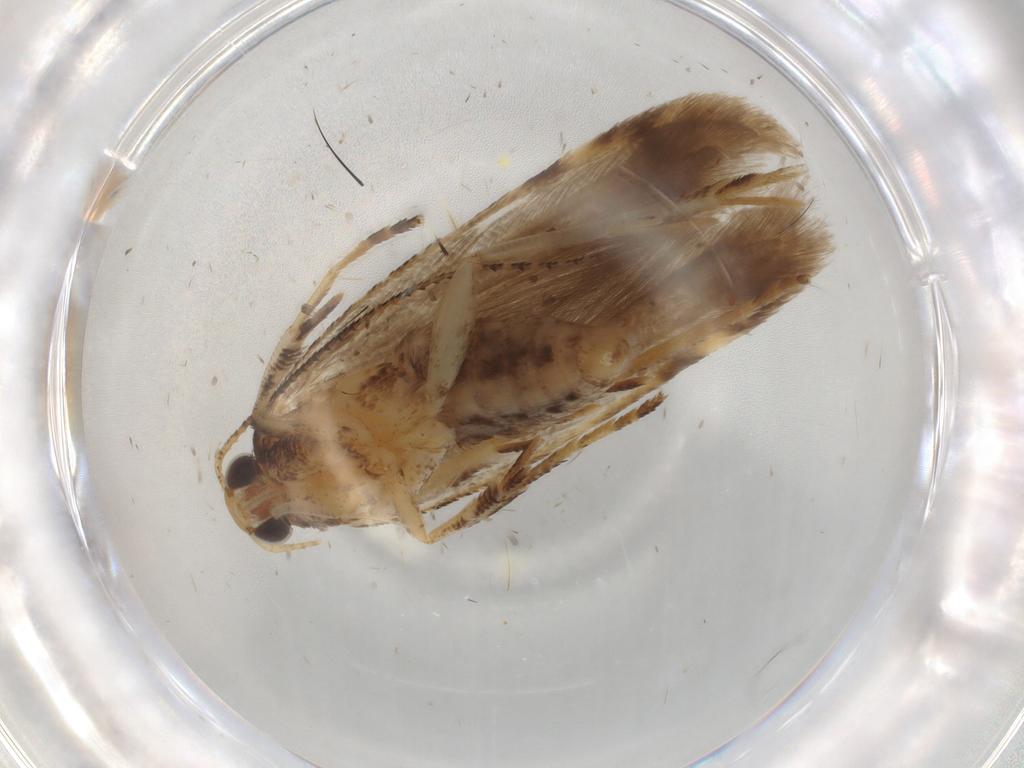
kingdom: Animalia
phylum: Arthropoda
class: Insecta
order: Lepidoptera
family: Gelechiidae
